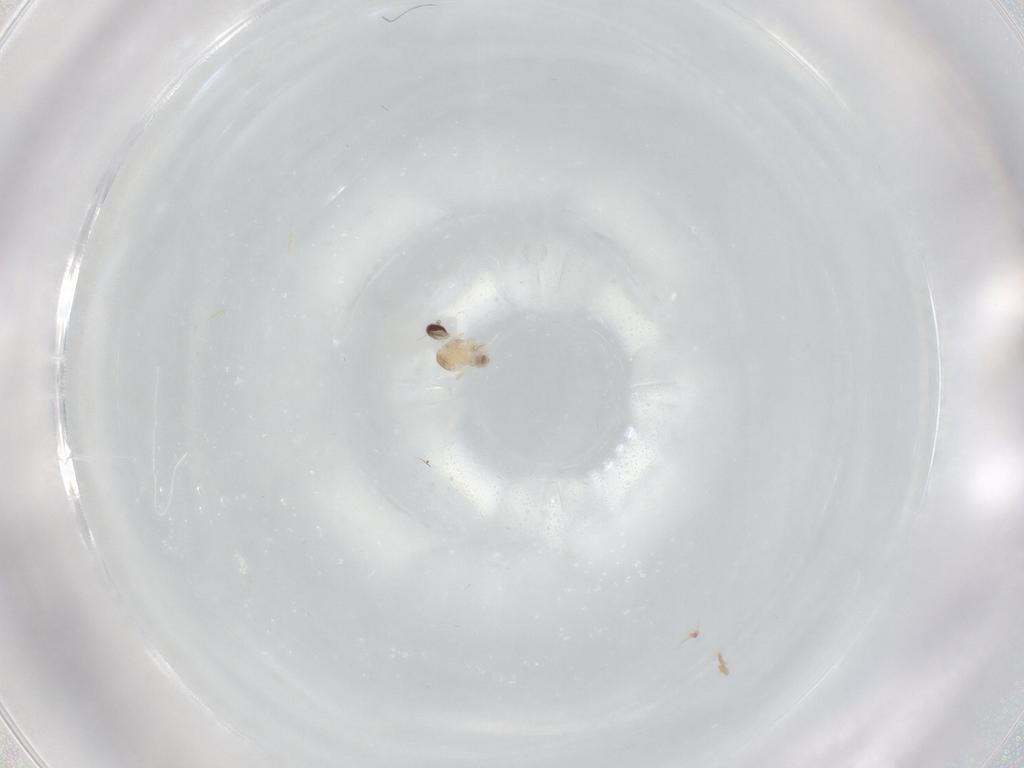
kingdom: Animalia
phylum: Arthropoda
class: Insecta
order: Diptera
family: Cecidomyiidae
